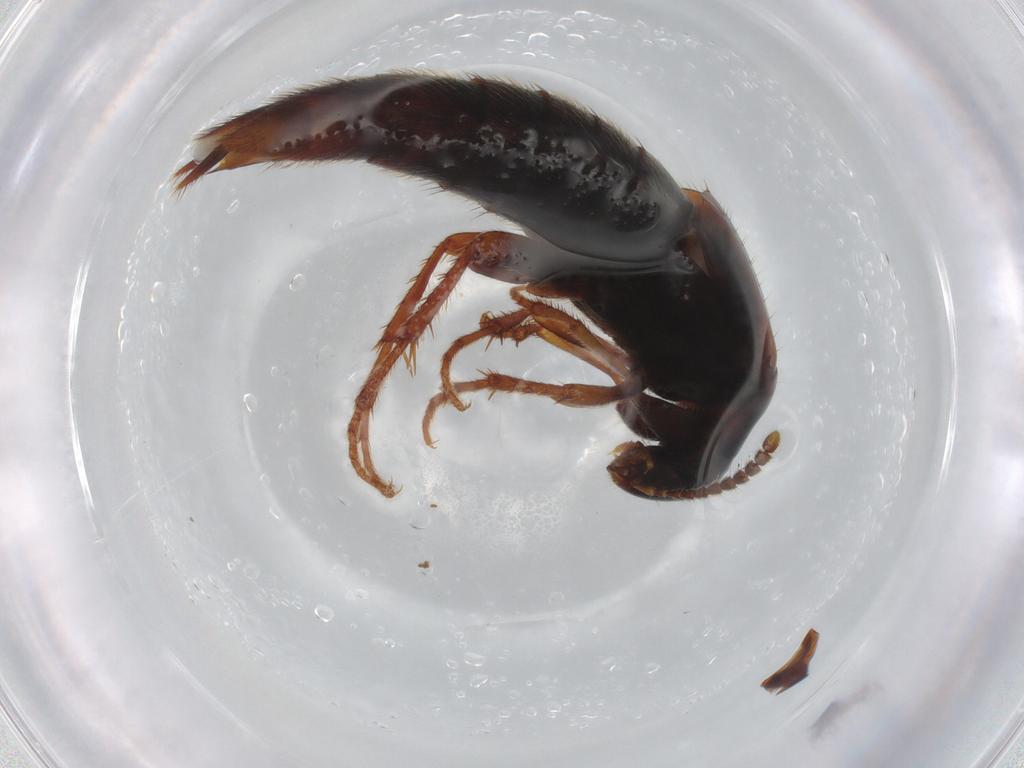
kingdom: Animalia
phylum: Arthropoda
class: Insecta
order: Coleoptera
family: Staphylinidae
